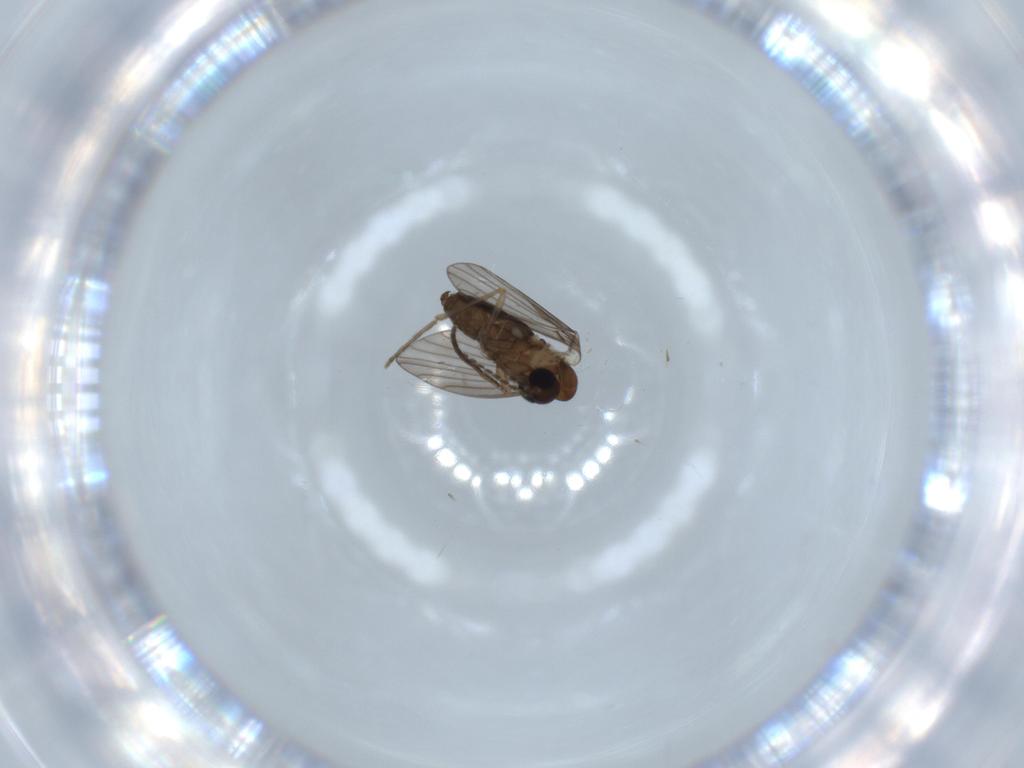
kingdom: Animalia
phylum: Arthropoda
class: Insecta
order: Diptera
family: Psychodidae
